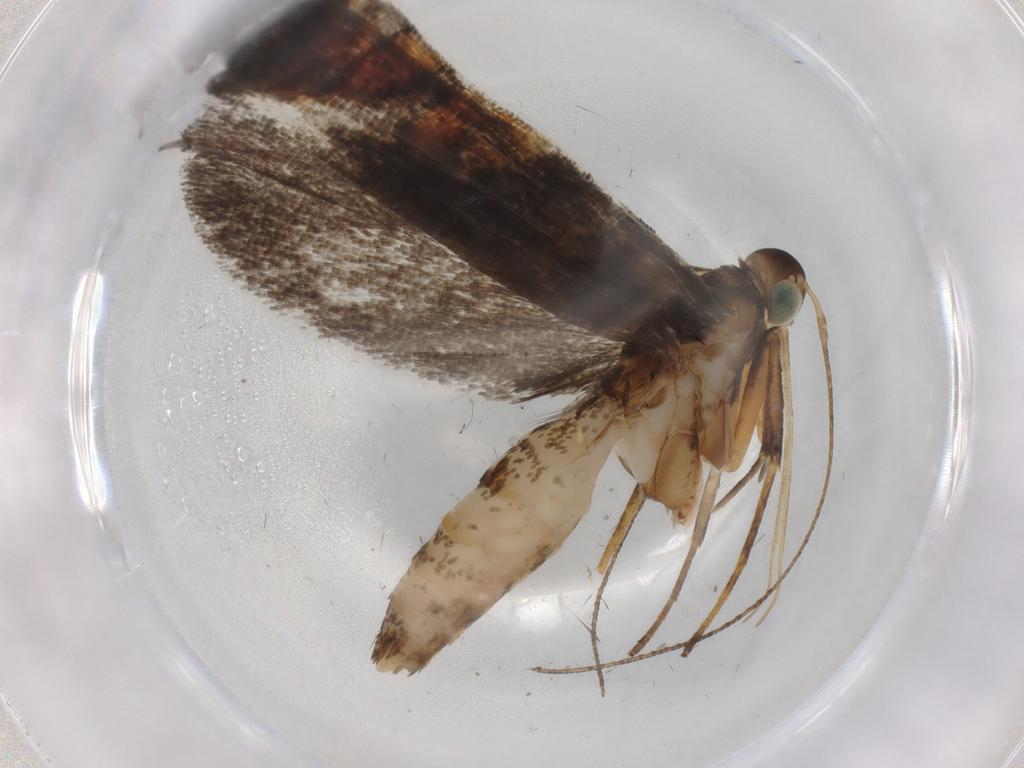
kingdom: Animalia
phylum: Arthropoda
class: Insecta
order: Lepidoptera
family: Gelechiidae
